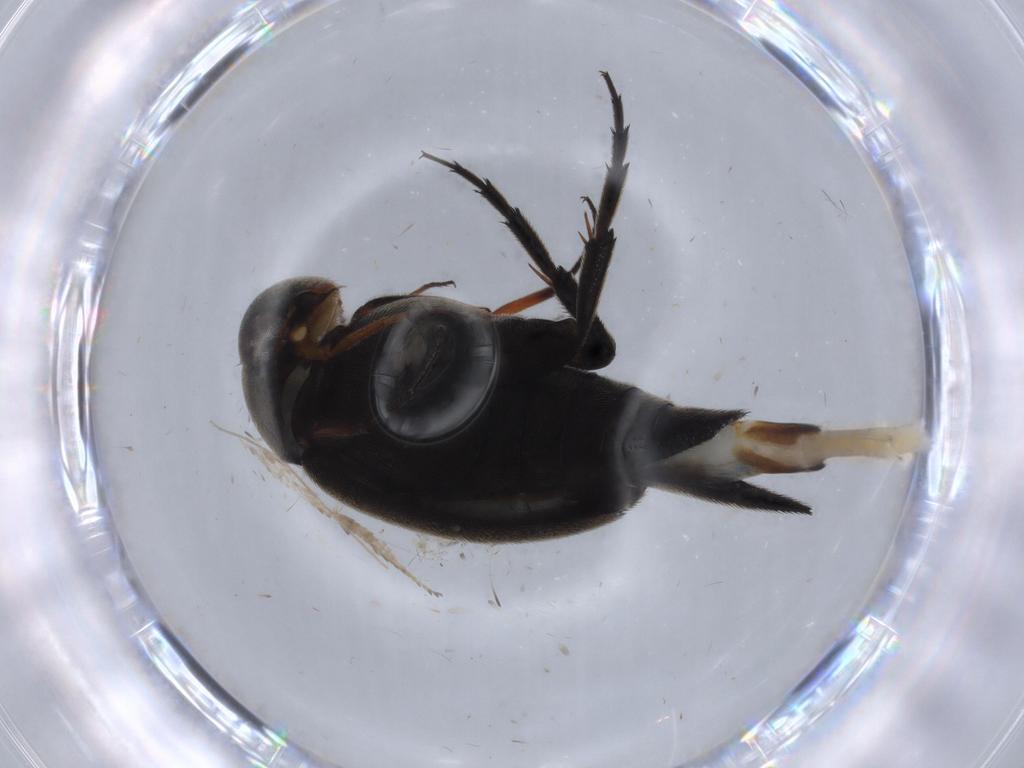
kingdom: Animalia
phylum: Arthropoda
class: Insecta
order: Coleoptera
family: Mordellidae
